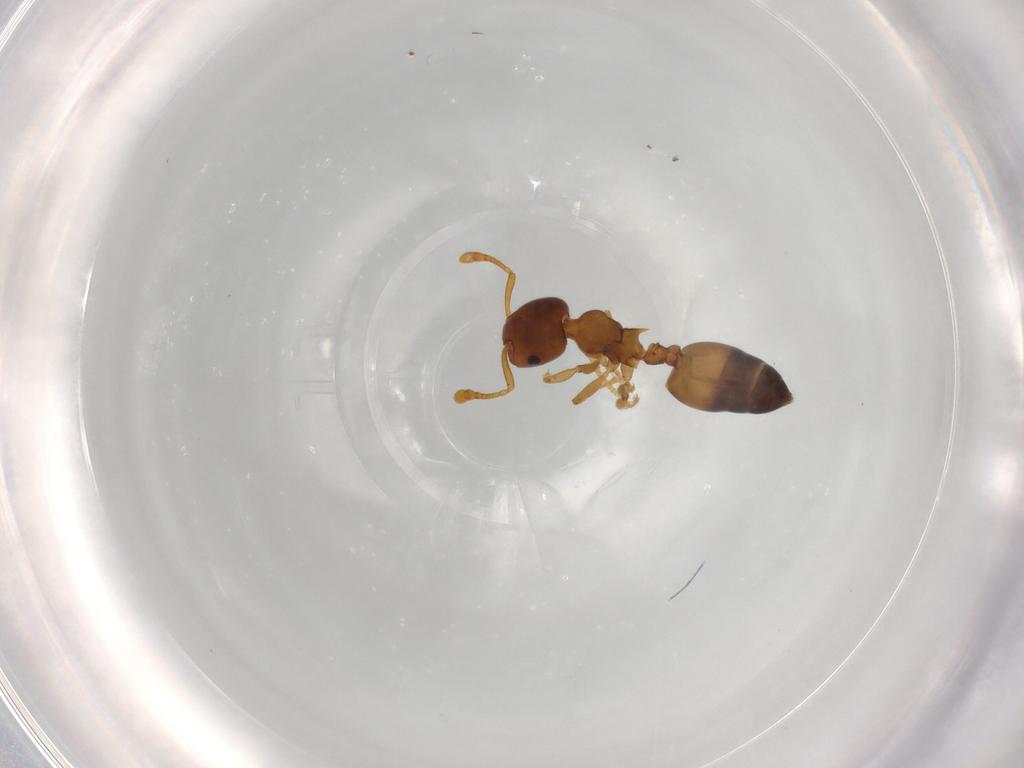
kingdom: Animalia
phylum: Arthropoda
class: Insecta
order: Hymenoptera
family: Formicidae
